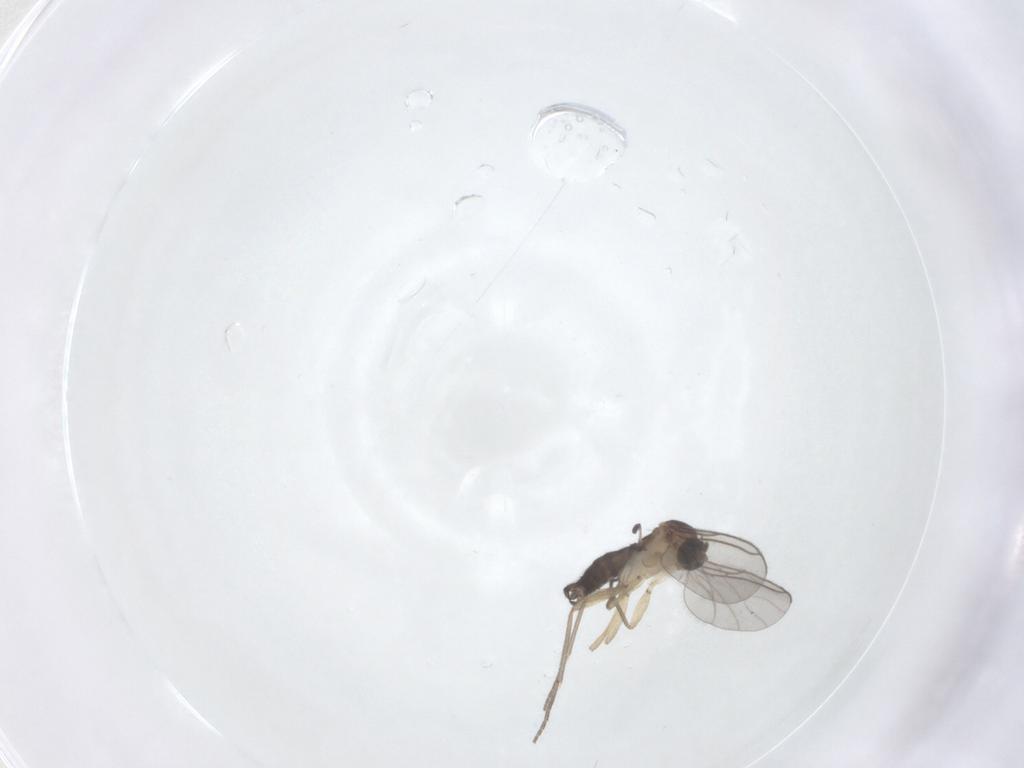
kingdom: Animalia
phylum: Arthropoda
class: Insecta
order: Diptera
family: Sciaridae
